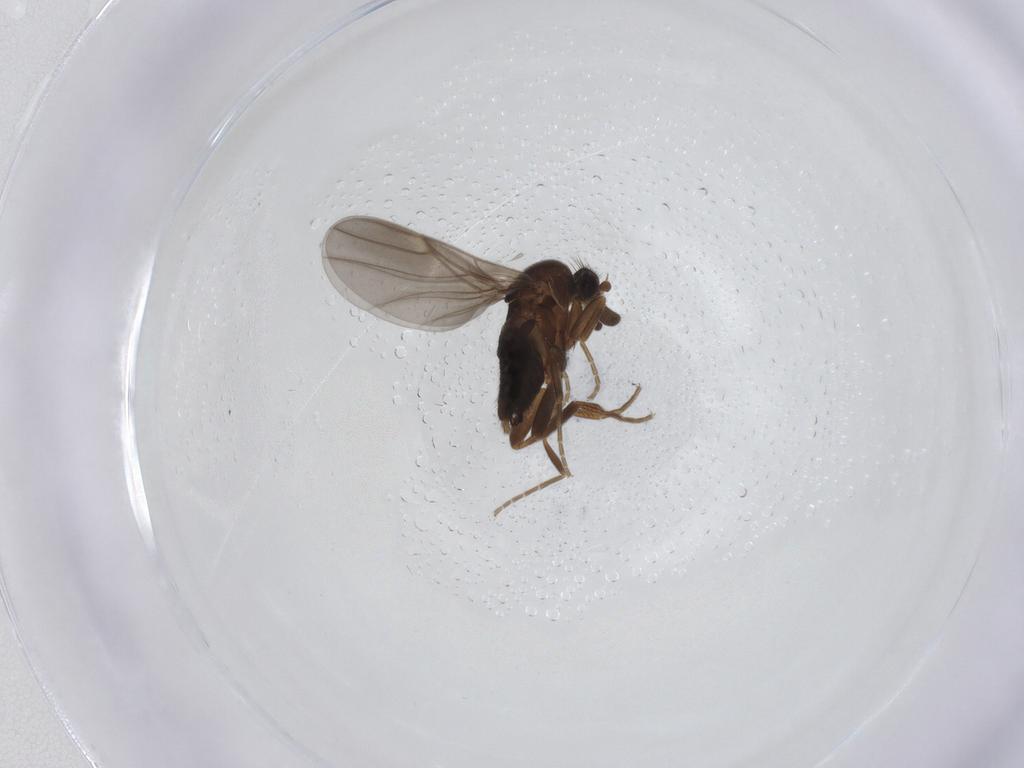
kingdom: Animalia
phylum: Arthropoda
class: Insecta
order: Diptera
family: Phoridae
